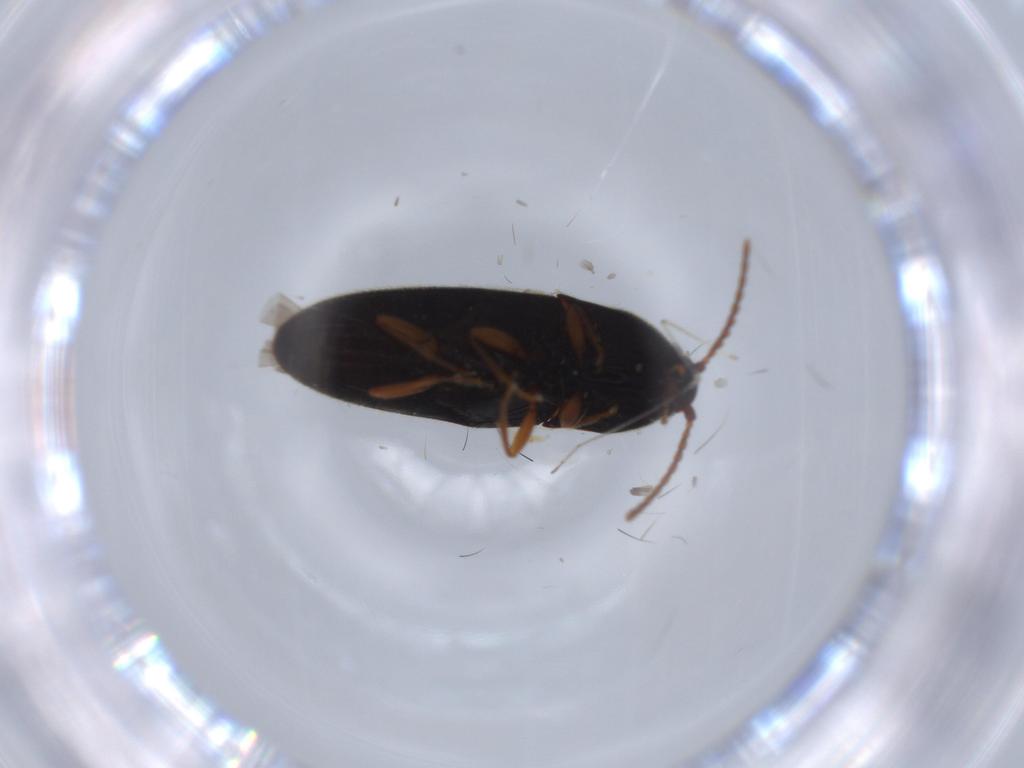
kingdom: Animalia
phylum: Arthropoda
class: Insecta
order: Coleoptera
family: Elateridae
